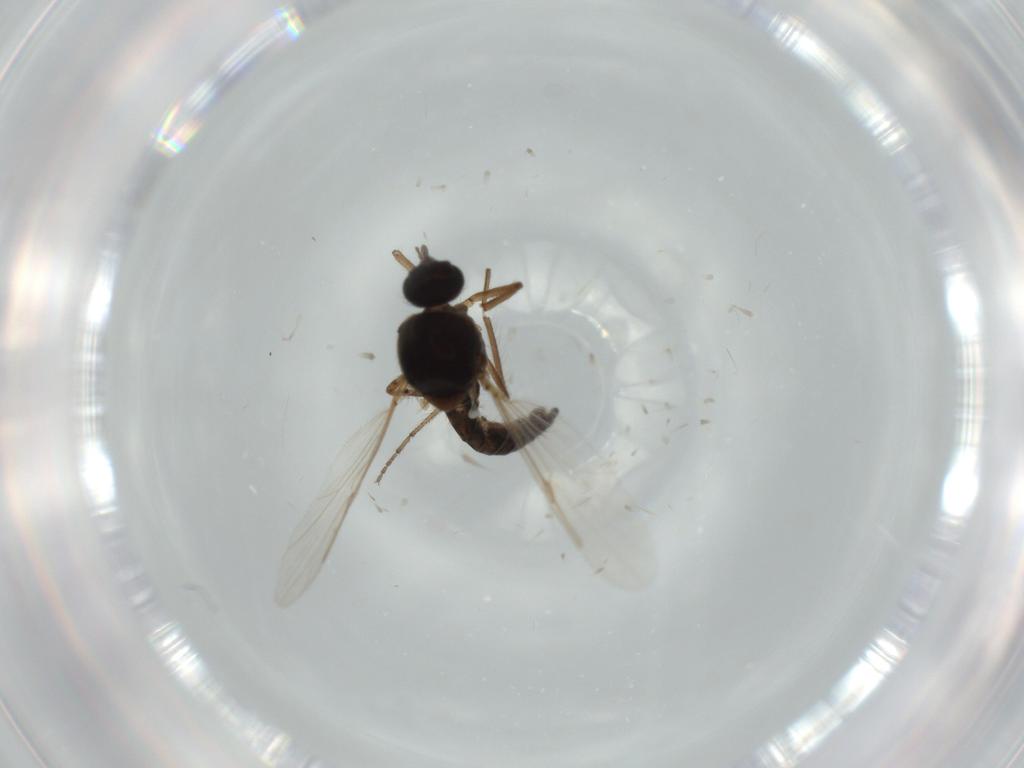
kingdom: Animalia
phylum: Arthropoda
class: Insecta
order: Diptera
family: Ceratopogonidae
